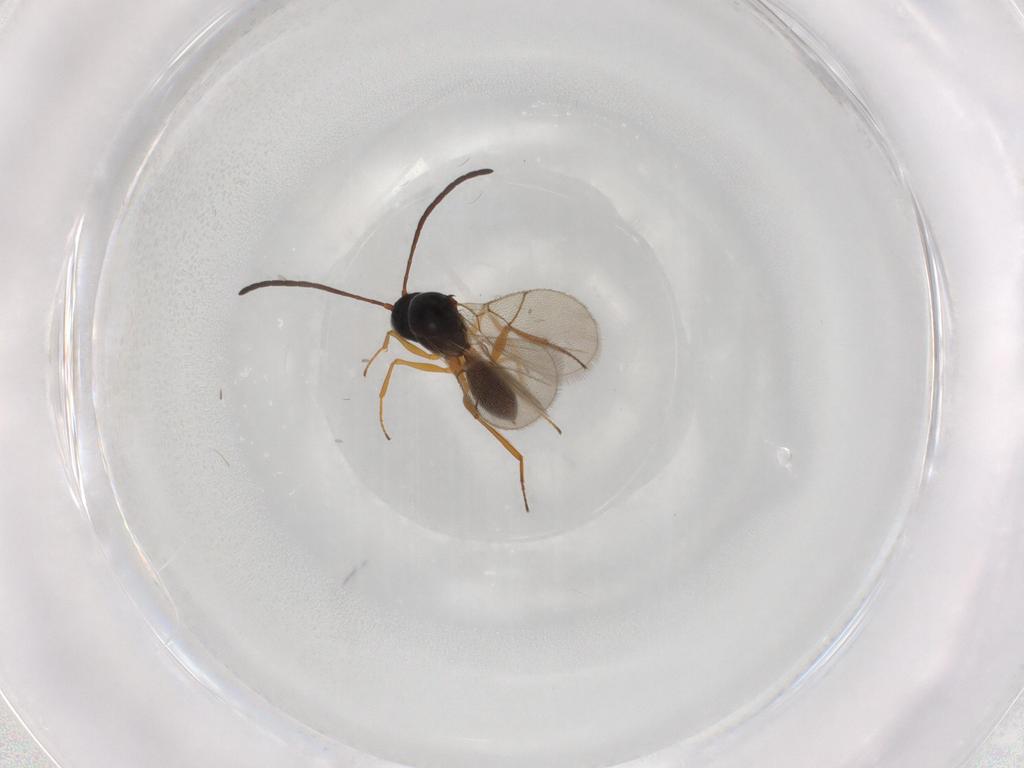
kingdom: Animalia
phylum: Arthropoda
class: Insecta
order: Hymenoptera
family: Figitidae
